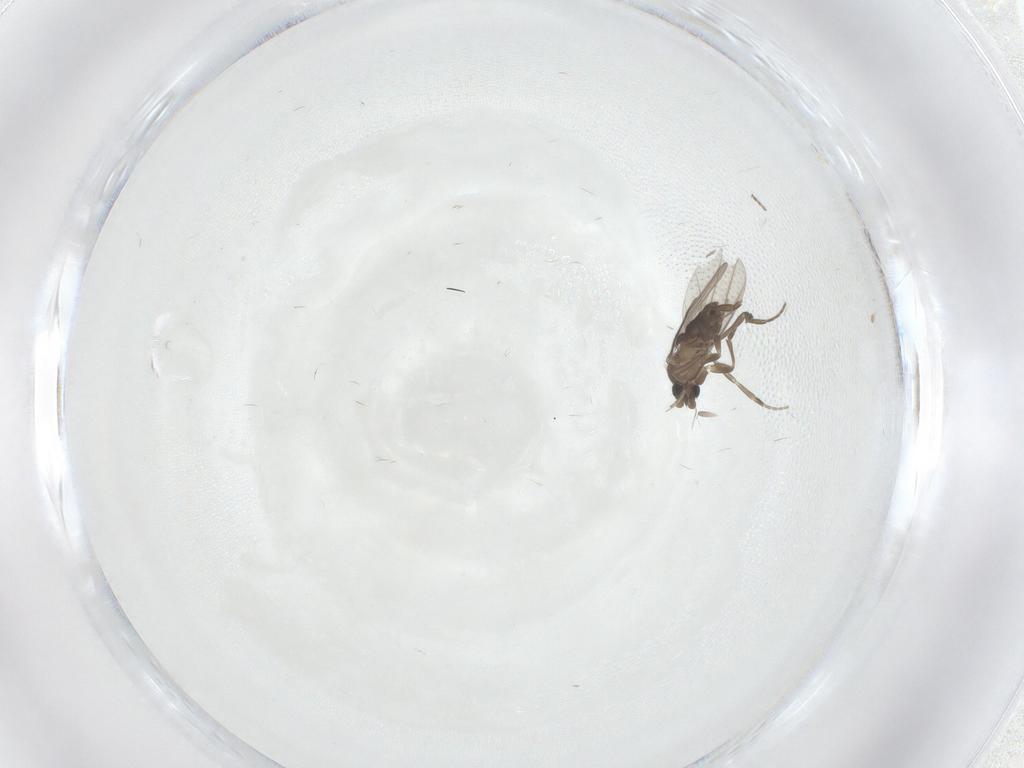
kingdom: Animalia
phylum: Arthropoda
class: Insecta
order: Diptera
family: Phoridae
